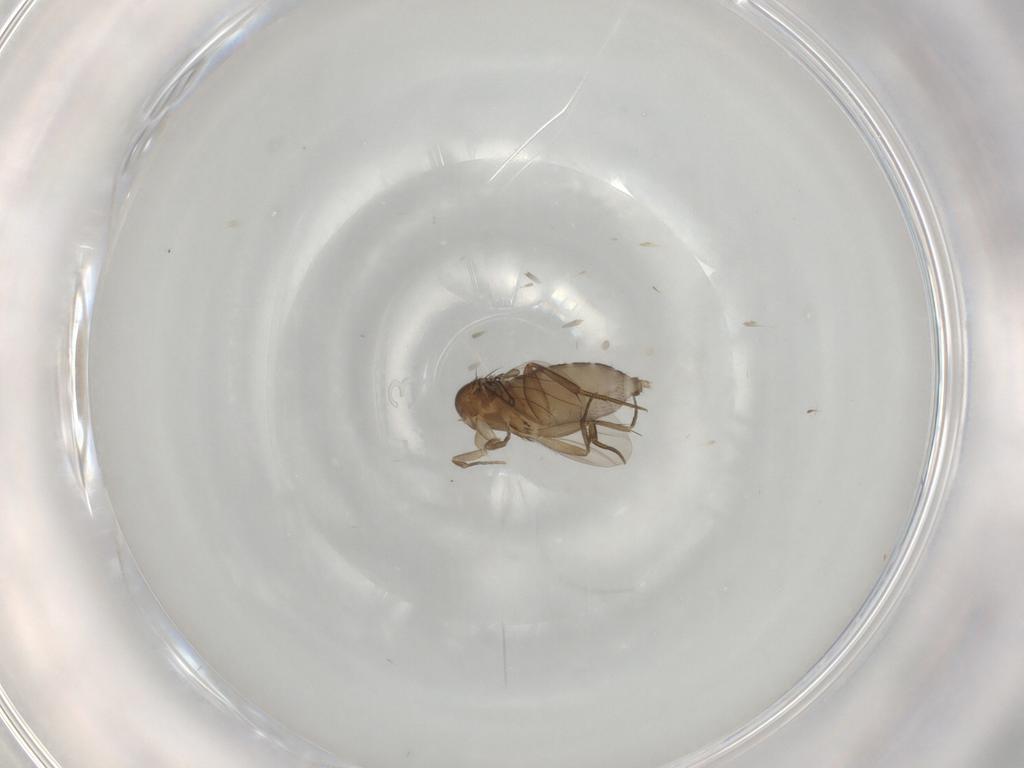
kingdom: Animalia
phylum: Arthropoda
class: Insecta
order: Diptera
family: Phoridae
